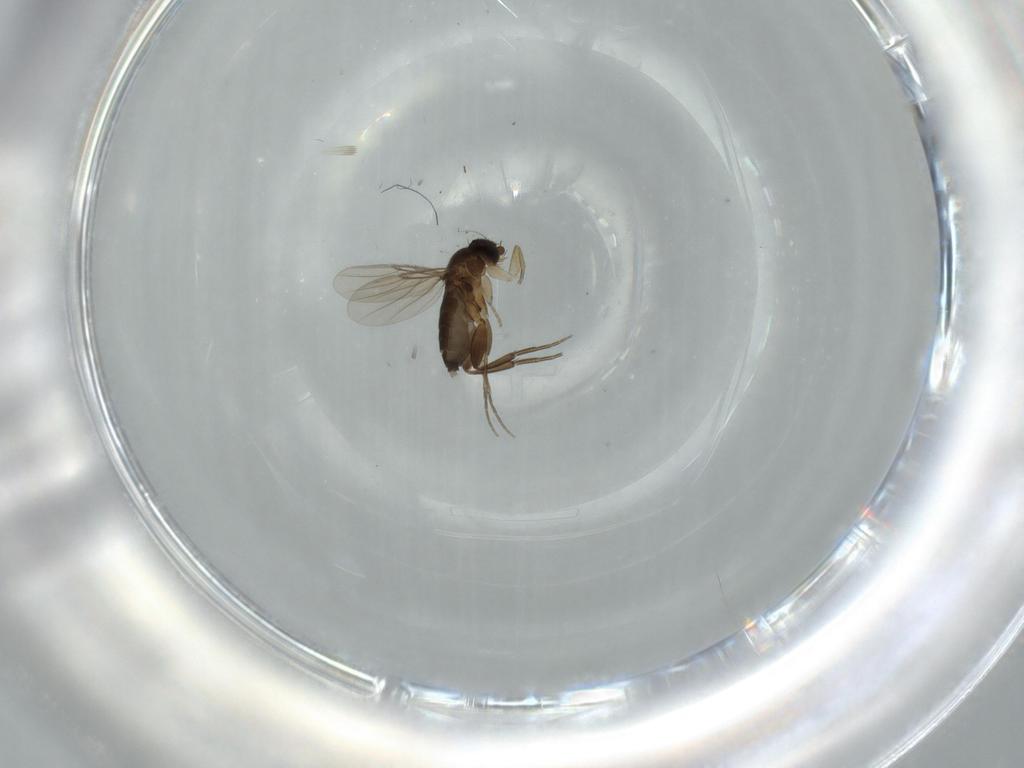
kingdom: Animalia
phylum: Arthropoda
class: Insecta
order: Diptera
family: Phoridae
